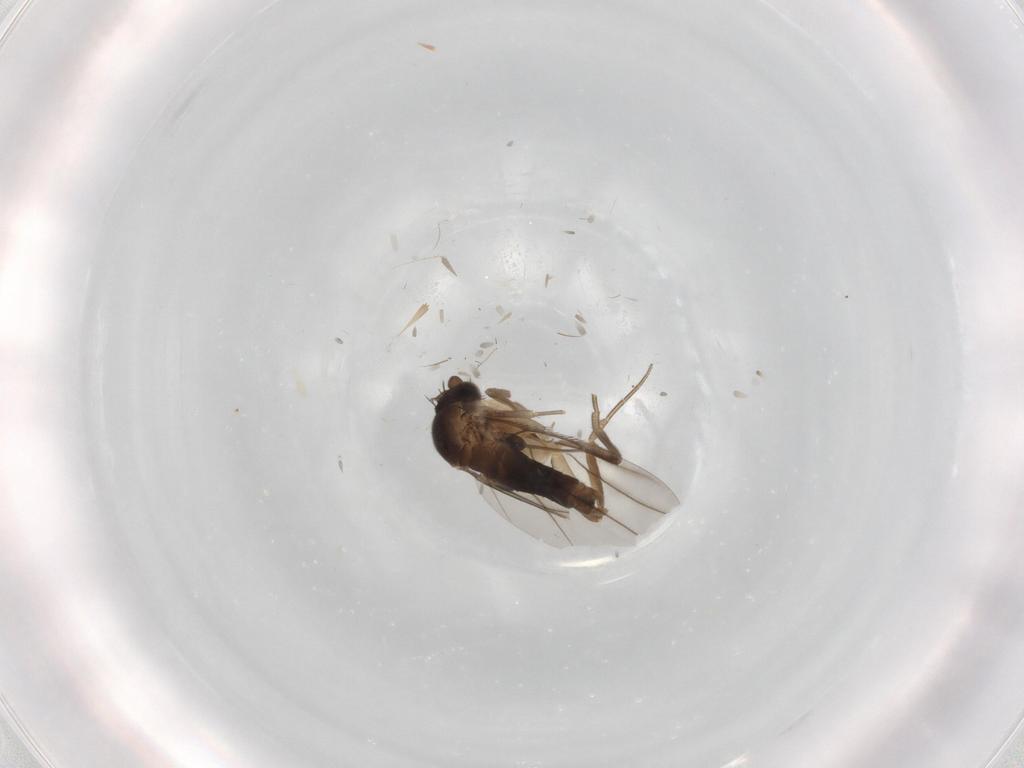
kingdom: Animalia
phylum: Arthropoda
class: Insecta
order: Diptera
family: Phoridae
